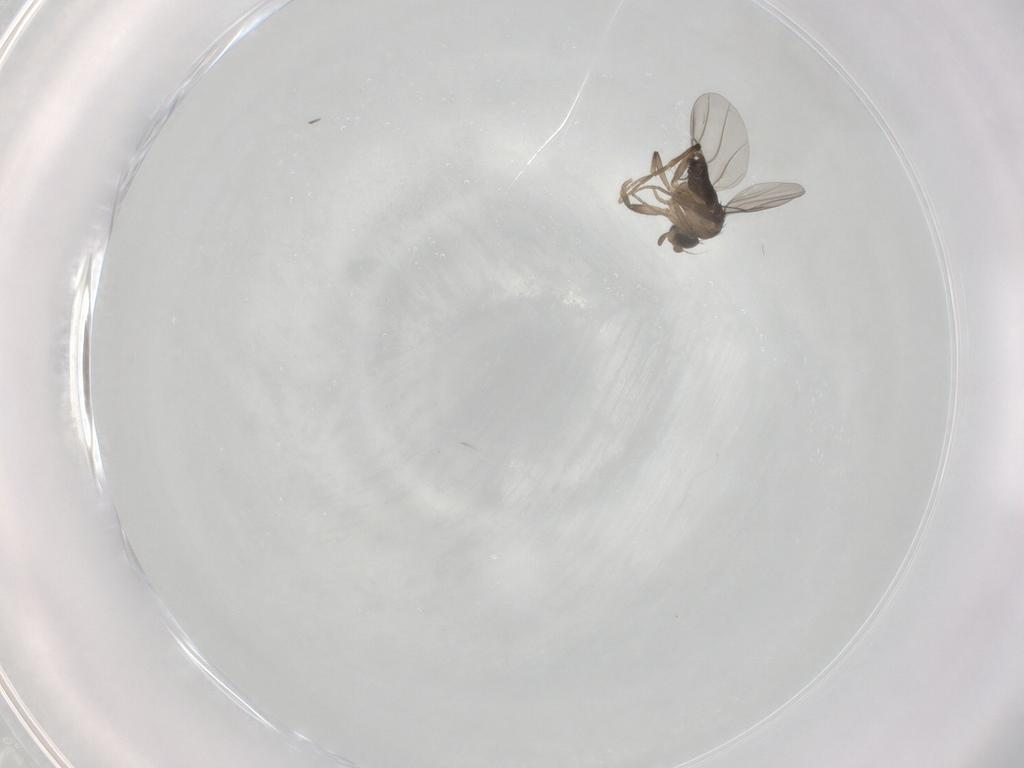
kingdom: Animalia
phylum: Arthropoda
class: Insecta
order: Diptera
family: Phoridae
